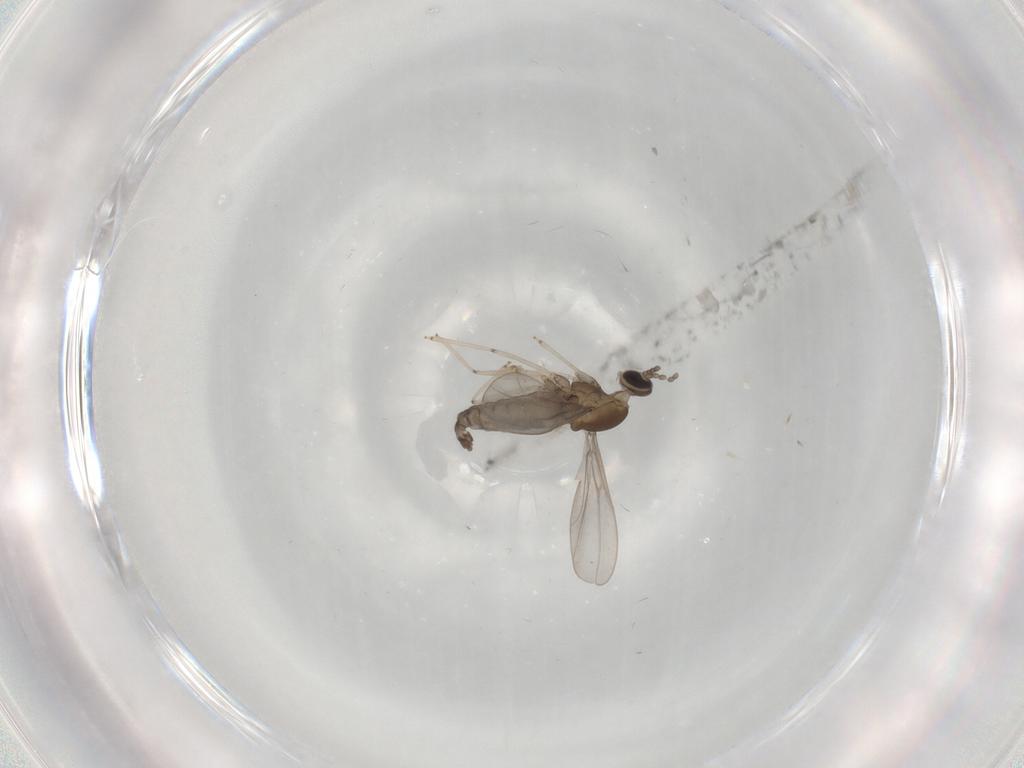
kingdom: Animalia
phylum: Arthropoda
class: Insecta
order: Diptera
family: Cecidomyiidae
